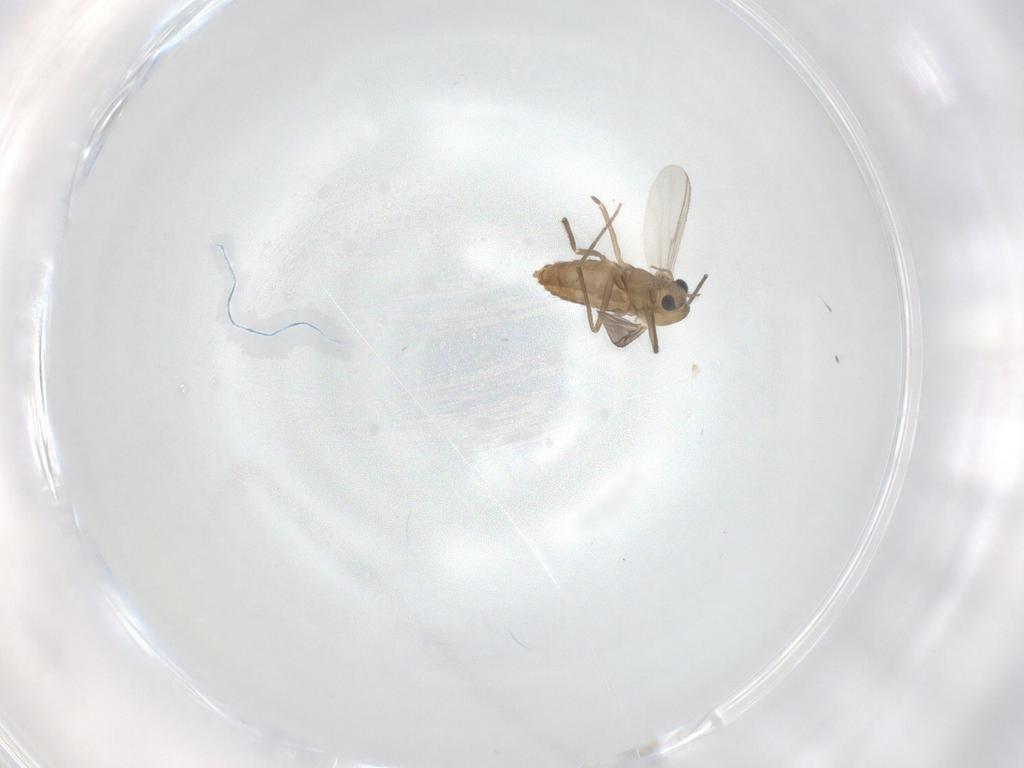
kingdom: Animalia
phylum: Arthropoda
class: Insecta
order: Diptera
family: Chironomidae
